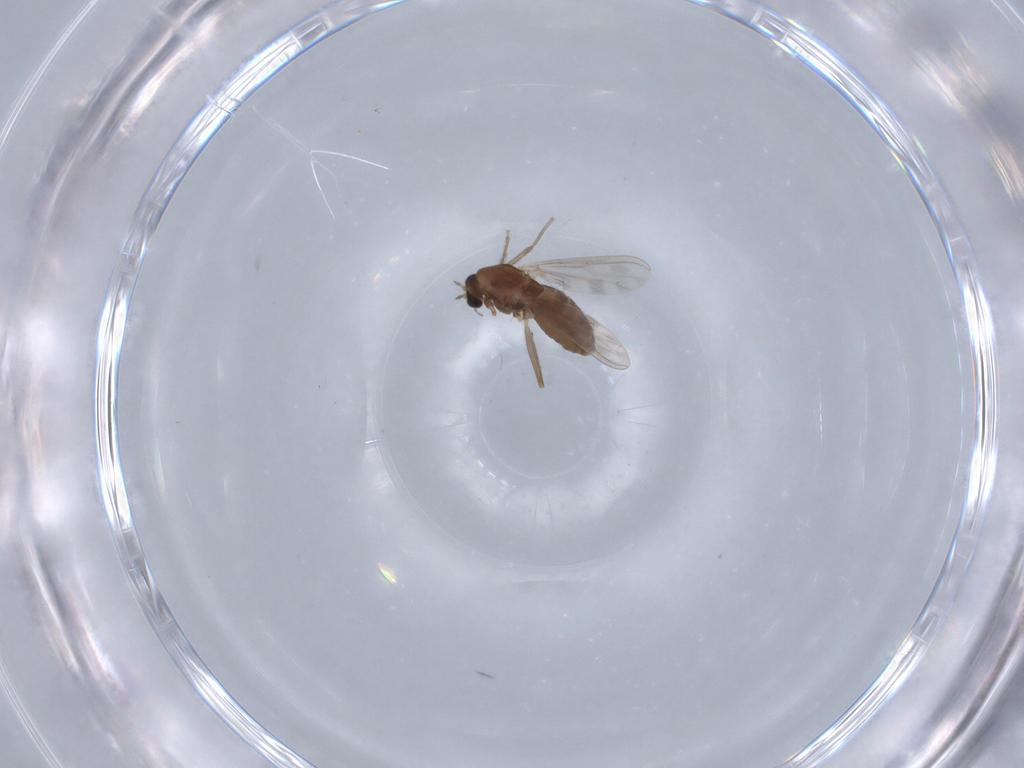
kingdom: Animalia
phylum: Arthropoda
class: Insecta
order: Diptera
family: Chironomidae
